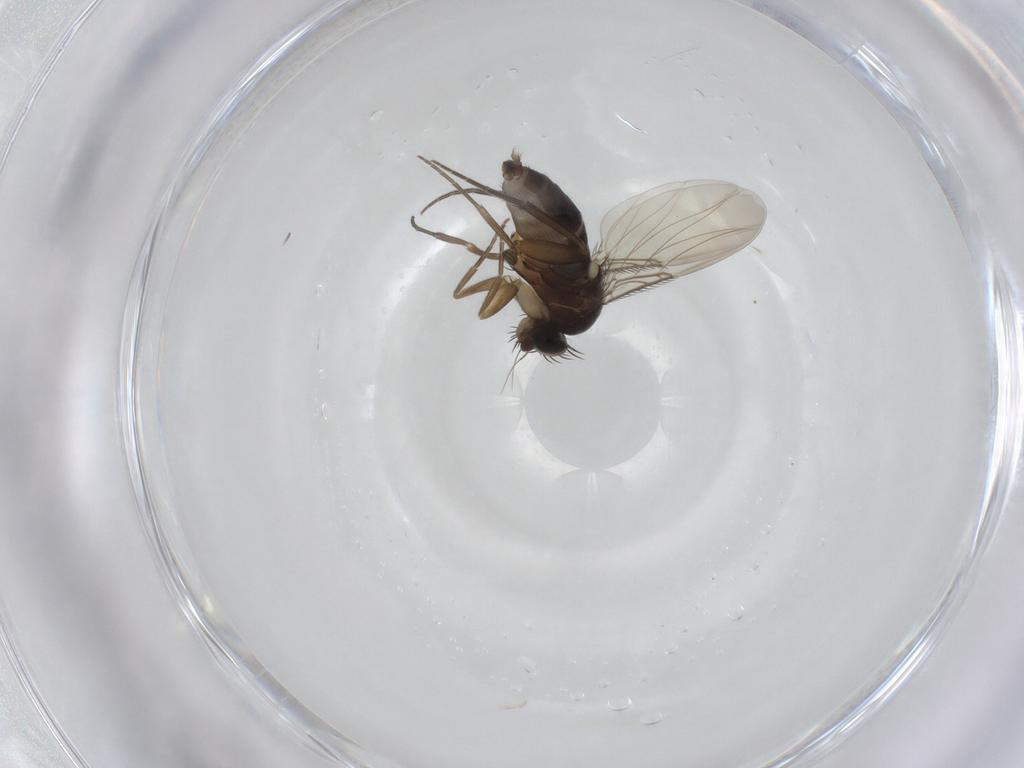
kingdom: Animalia
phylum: Arthropoda
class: Insecta
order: Diptera
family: Phoridae
